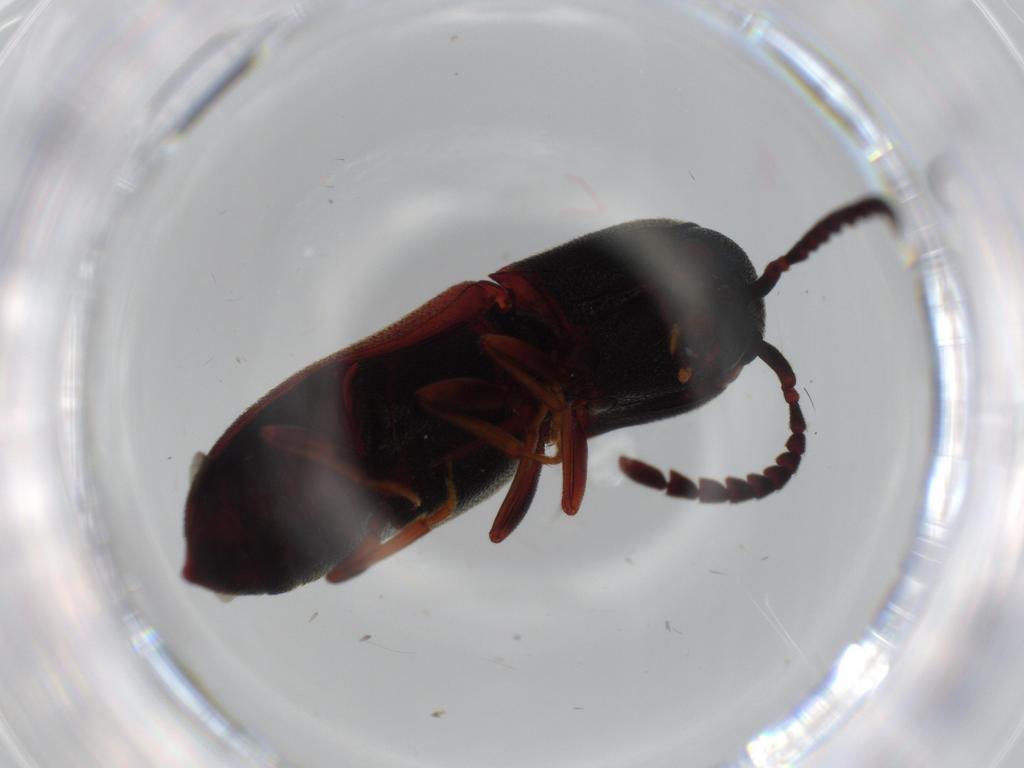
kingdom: Animalia
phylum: Arthropoda
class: Insecta
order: Coleoptera
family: Eucnemidae
